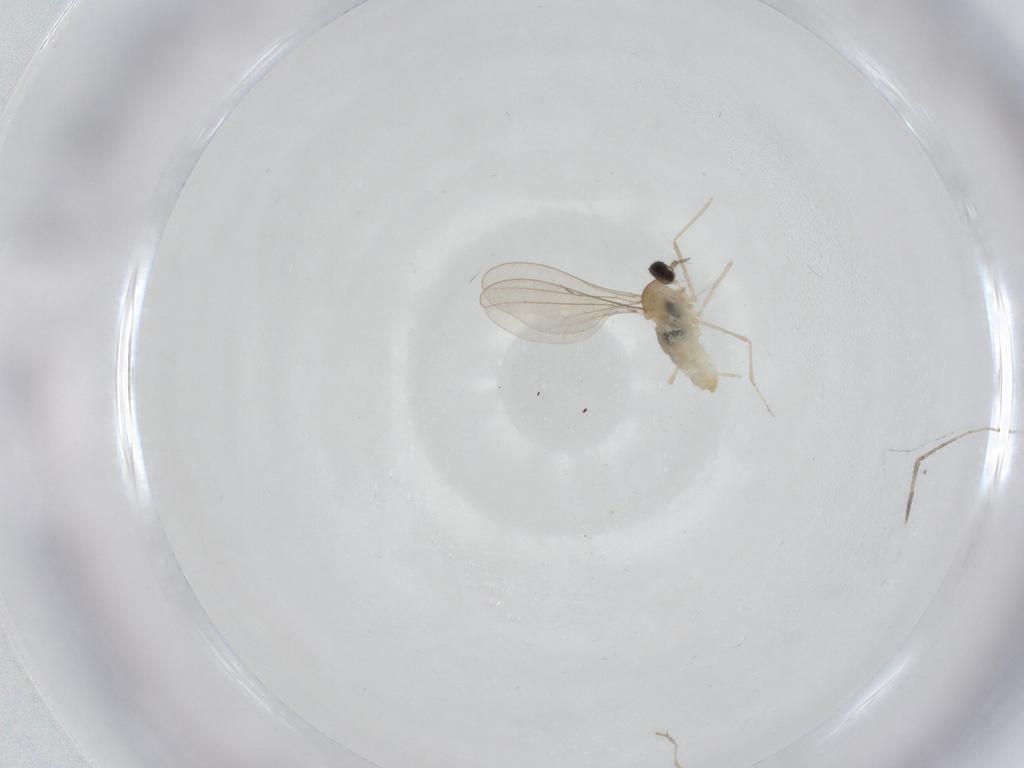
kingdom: Animalia
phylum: Arthropoda
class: Insecta
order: Diptera
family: Cecidomyiidae
